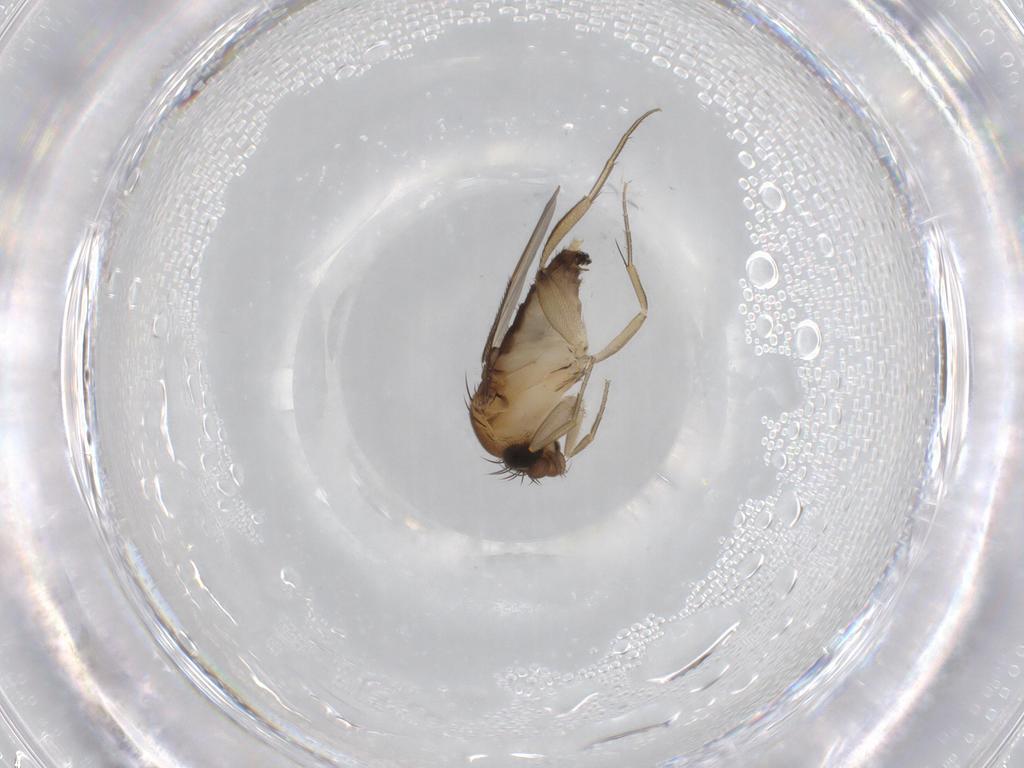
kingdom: Animalia
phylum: Arthropoda
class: Insecta
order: Diptera
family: Phoridae
